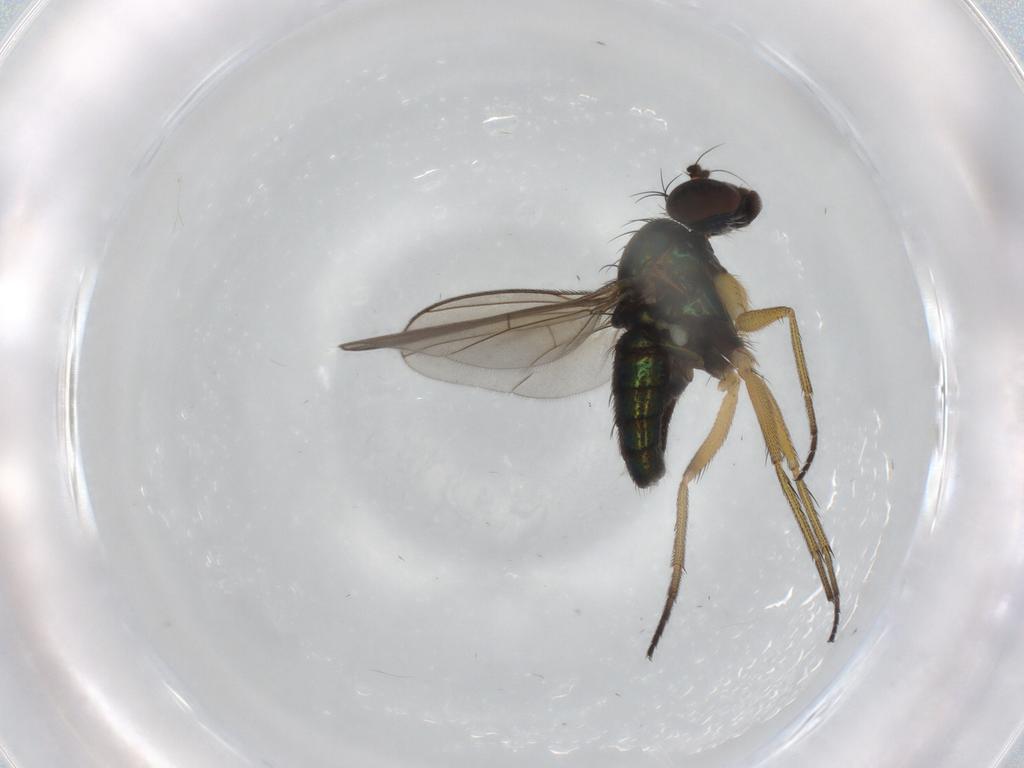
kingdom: Animalia
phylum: Arthropoda
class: Insecta
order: Diptera
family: Dolichopodidae
